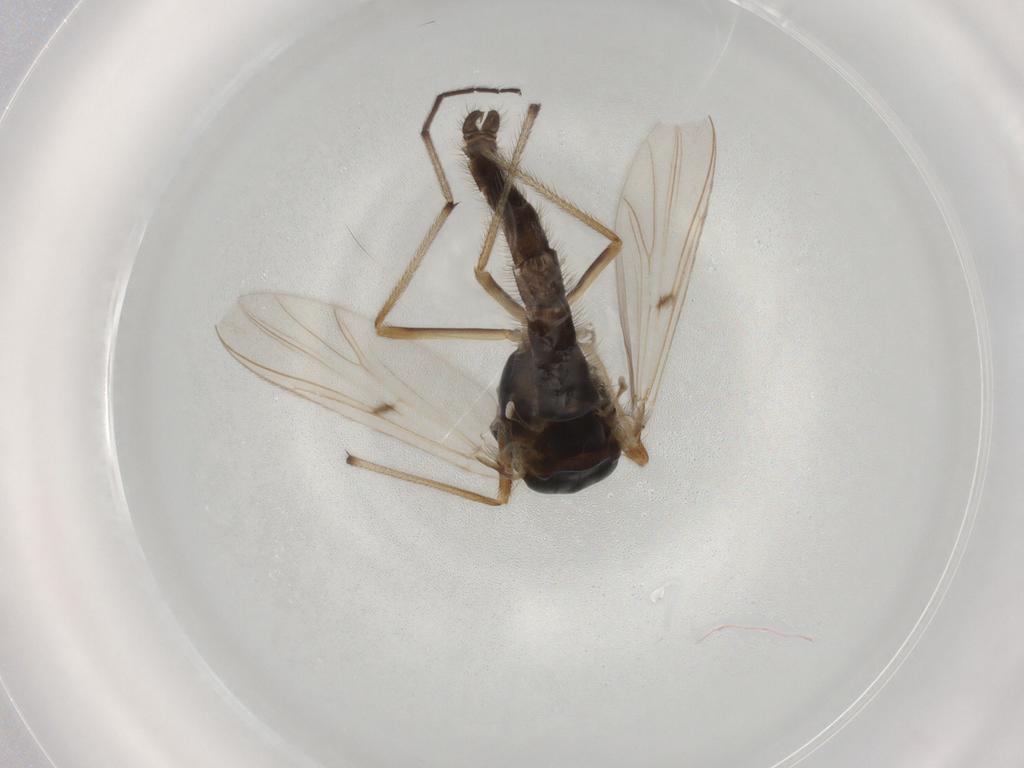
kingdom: Animalia
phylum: Arthropoda
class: Insecta
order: Diptera
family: Chironomidae
